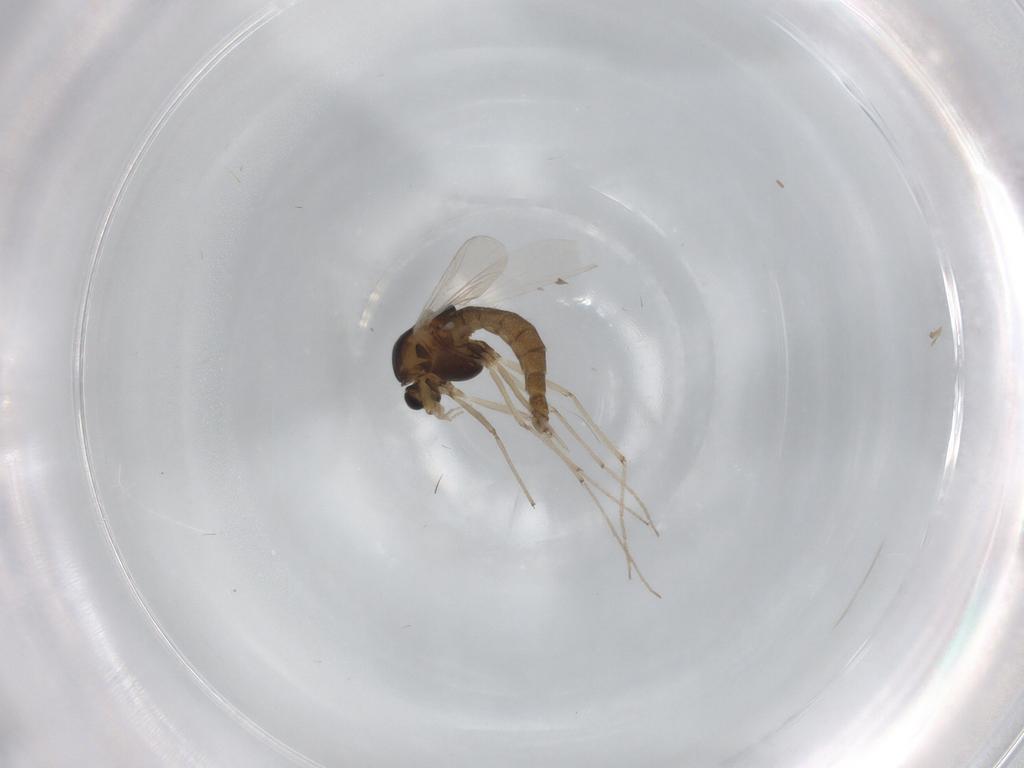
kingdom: Animalia
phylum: Arthropoda
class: Insecta
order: Diptera
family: Chironomidae
